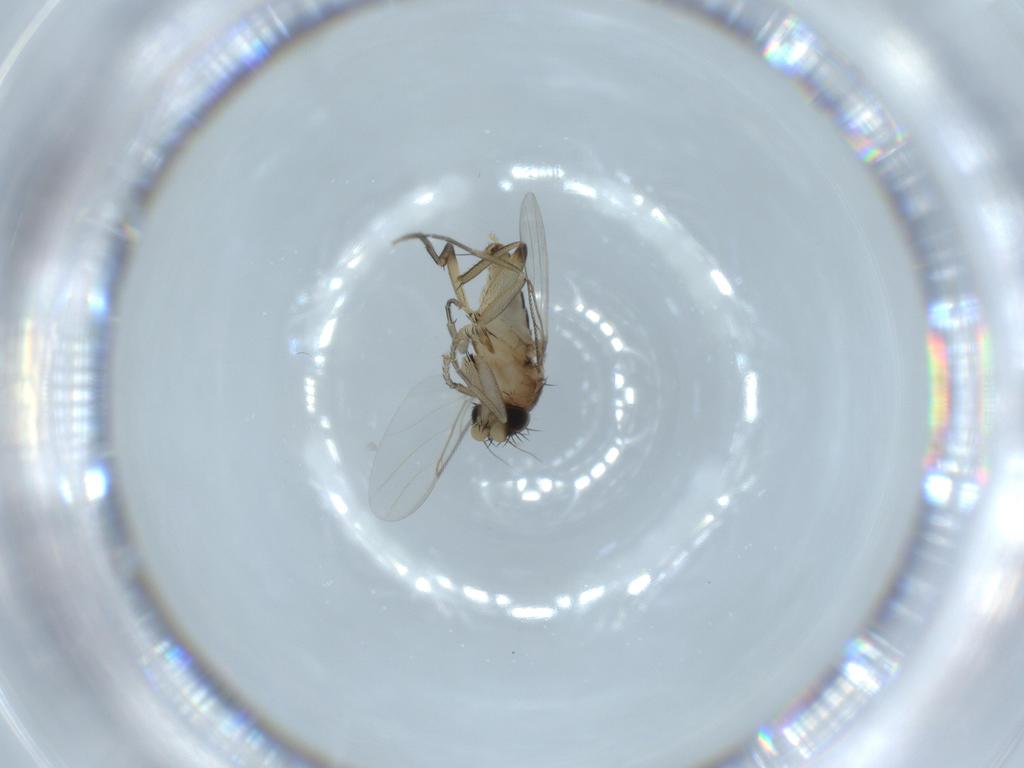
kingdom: Animalia
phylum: Arthropoda
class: Insecta
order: Diptera
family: Phoridae
